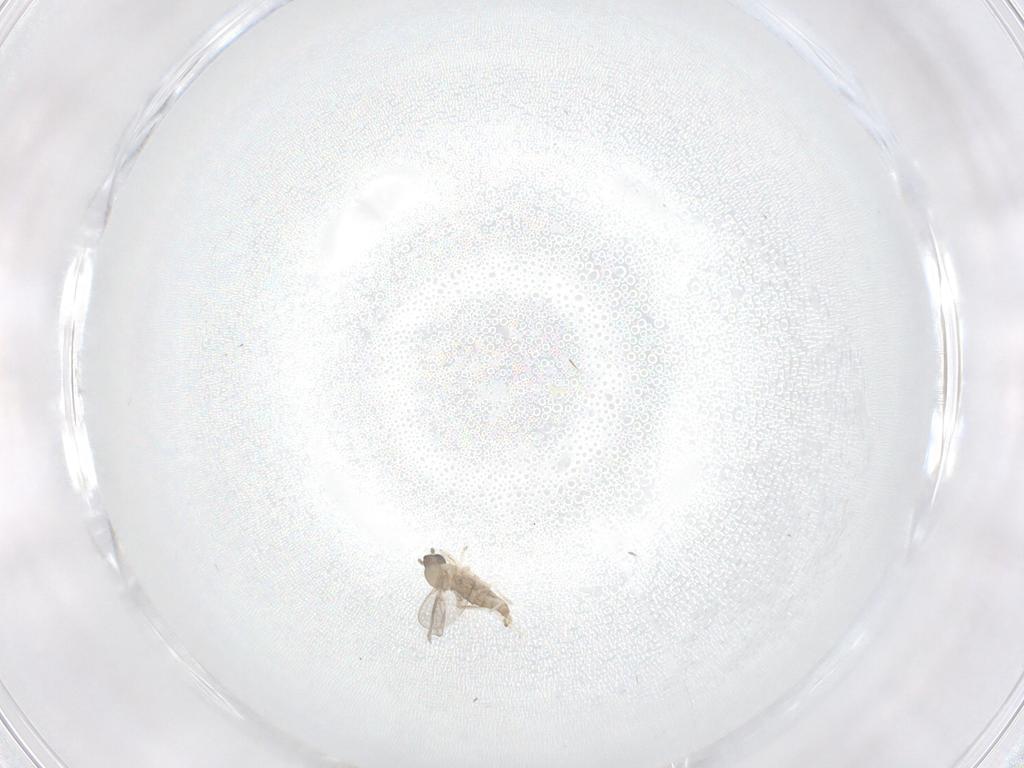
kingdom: Animalia
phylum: Arthropoda
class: Insecta
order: Diptera
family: Cecidomyiidae
